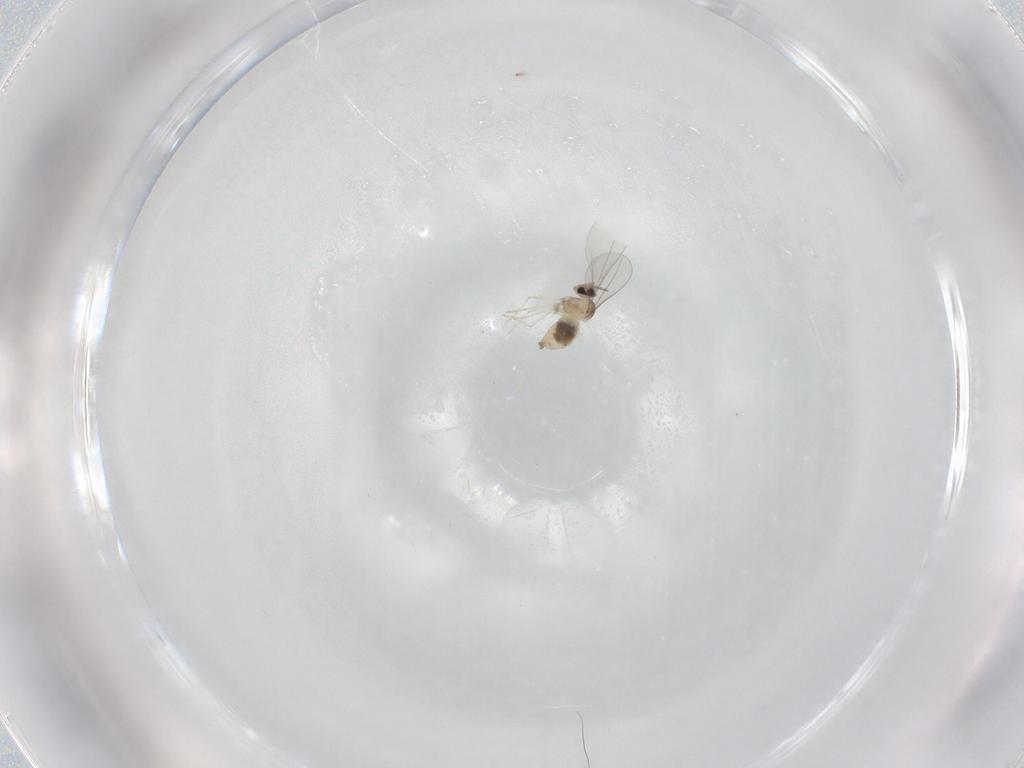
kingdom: Animalia
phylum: Arthropoda
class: Insecta
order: Diptera
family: Cecidomyiidae
